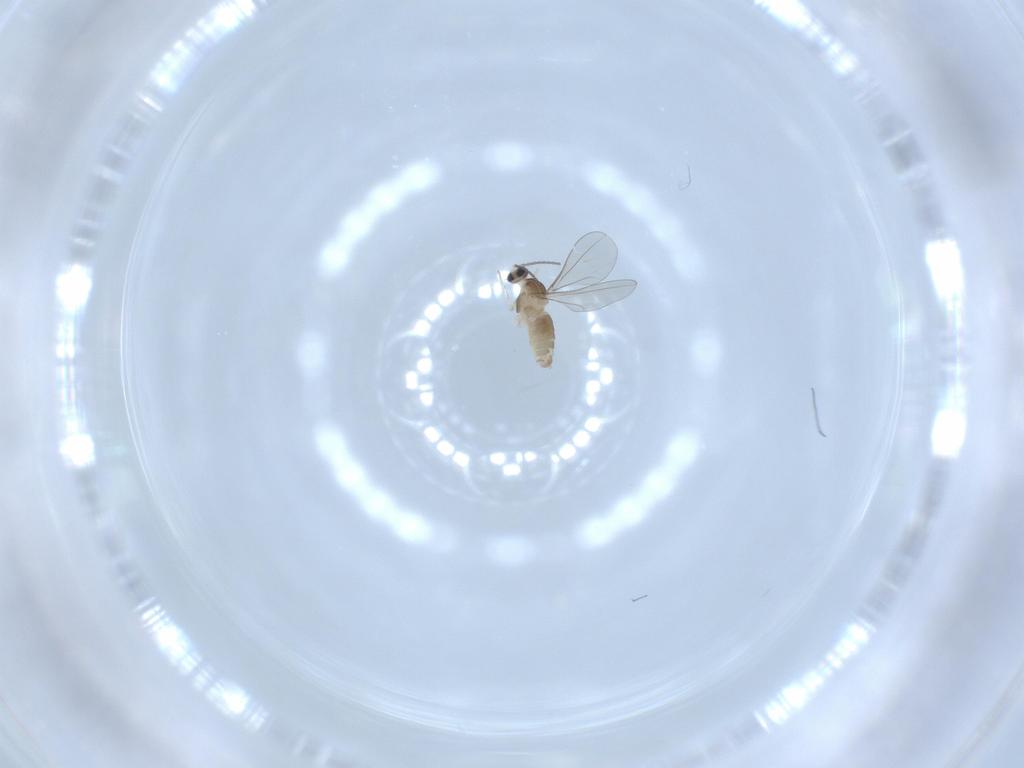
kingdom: Animalia
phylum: Arthropoda
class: Insecta
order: Diptera
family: Cecidomyiidae
